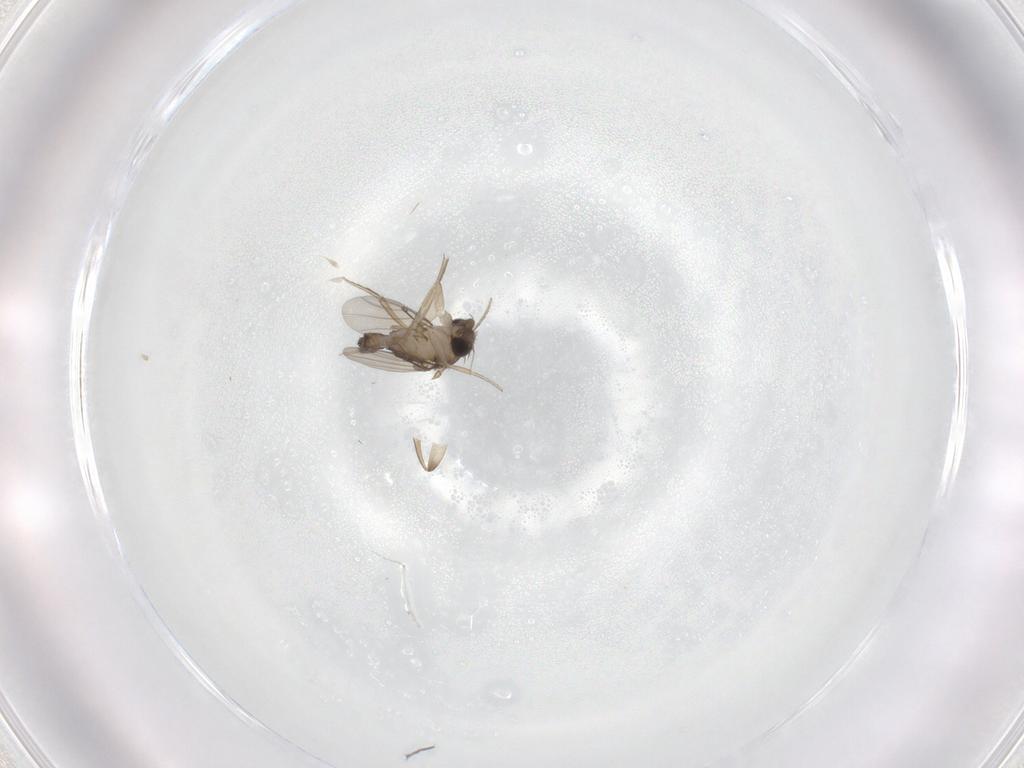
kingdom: Animalia
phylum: Arthropoda
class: Insecta
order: Diptera
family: Phoridae
